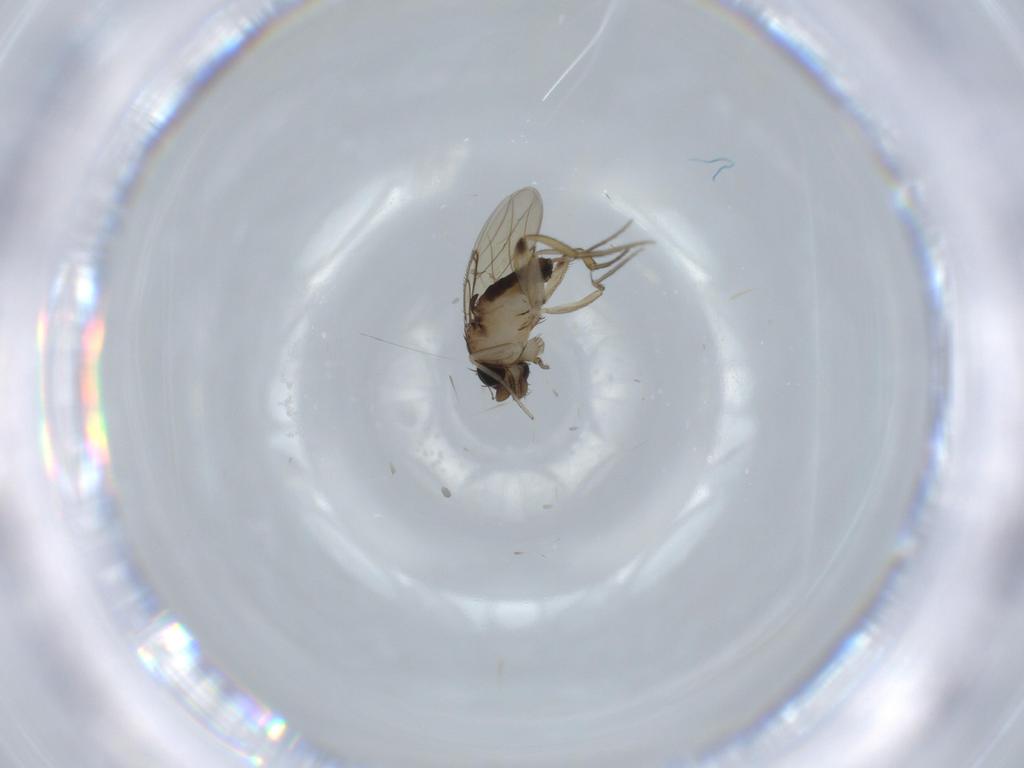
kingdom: Animalia
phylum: Arthropoda
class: Insecta
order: Diptera
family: Phoridae
